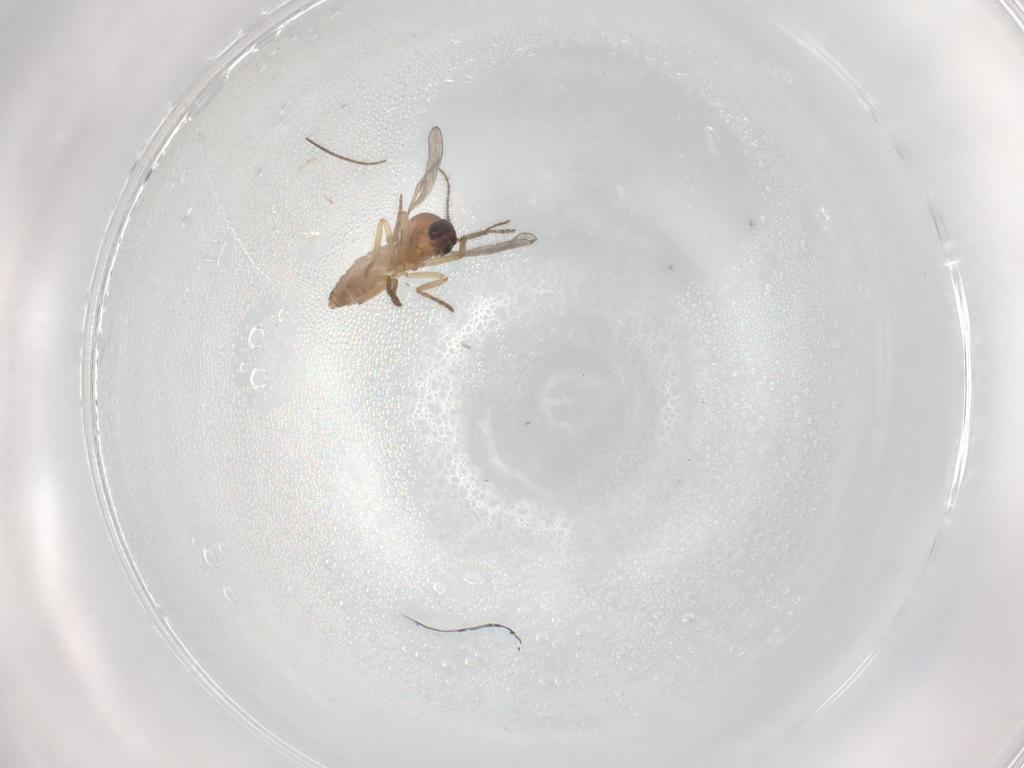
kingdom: Animalia
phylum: Arthropoda
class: Insecta
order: Diptera
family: Chironomidae
